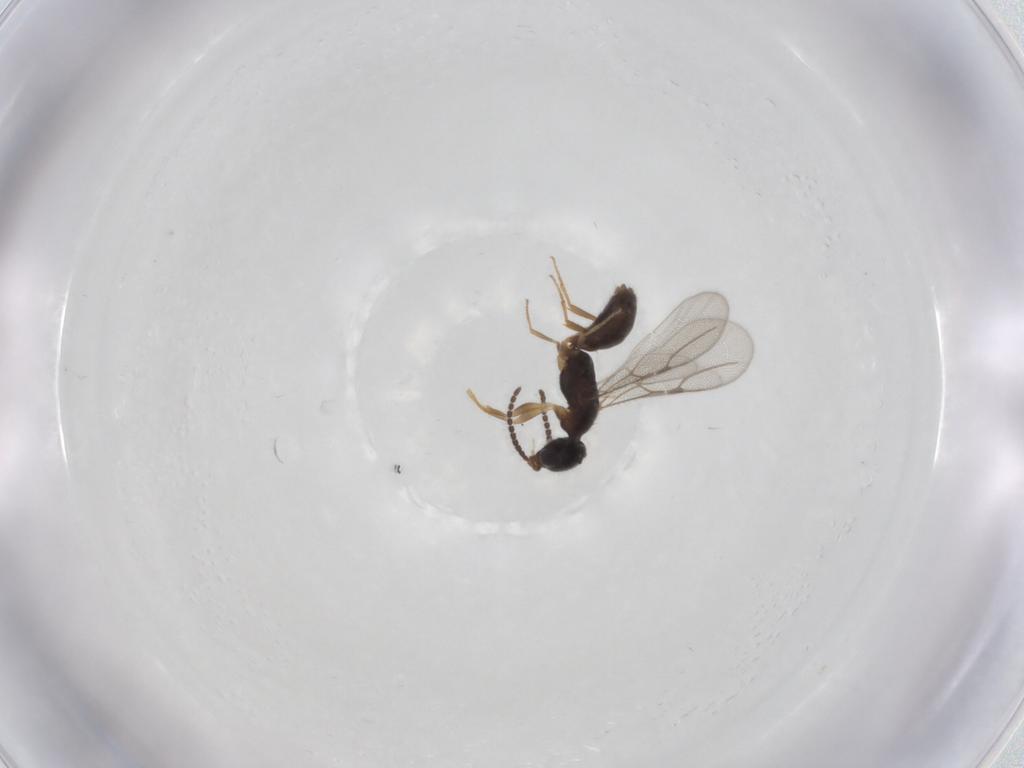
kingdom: Animalia
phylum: Arthropoda
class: Insecta
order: Hymenoptera
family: Bethylidae
